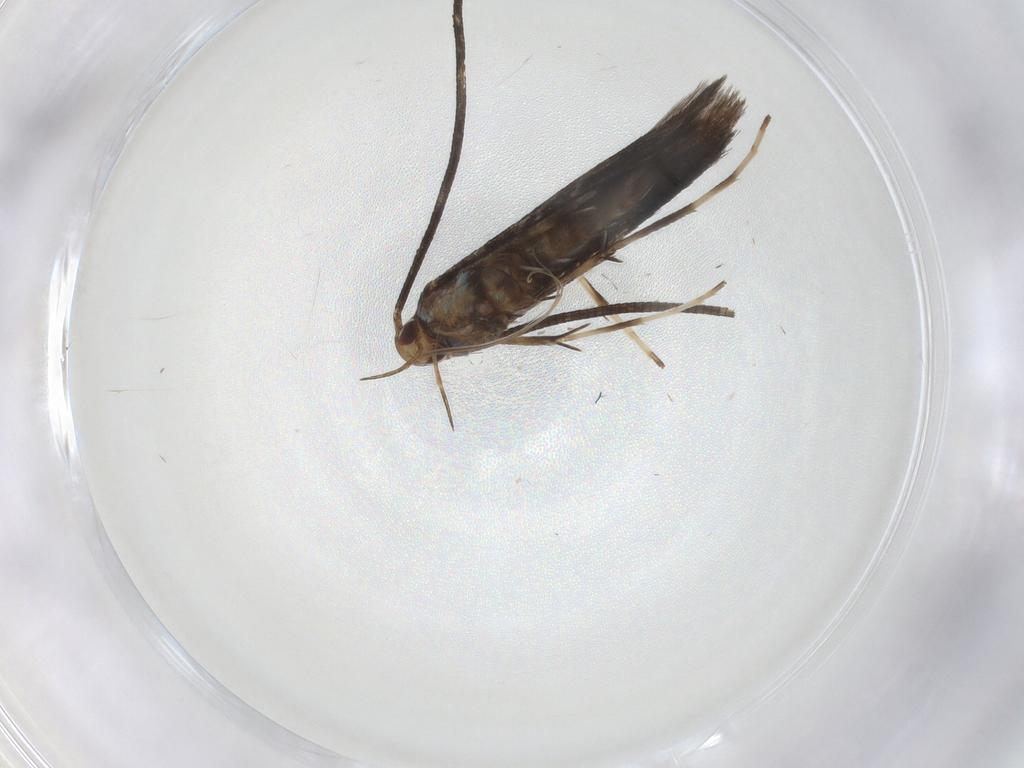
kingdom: Animalia
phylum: Arthropoda
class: Insecta
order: Lepidoptera
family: Gracillariidae
